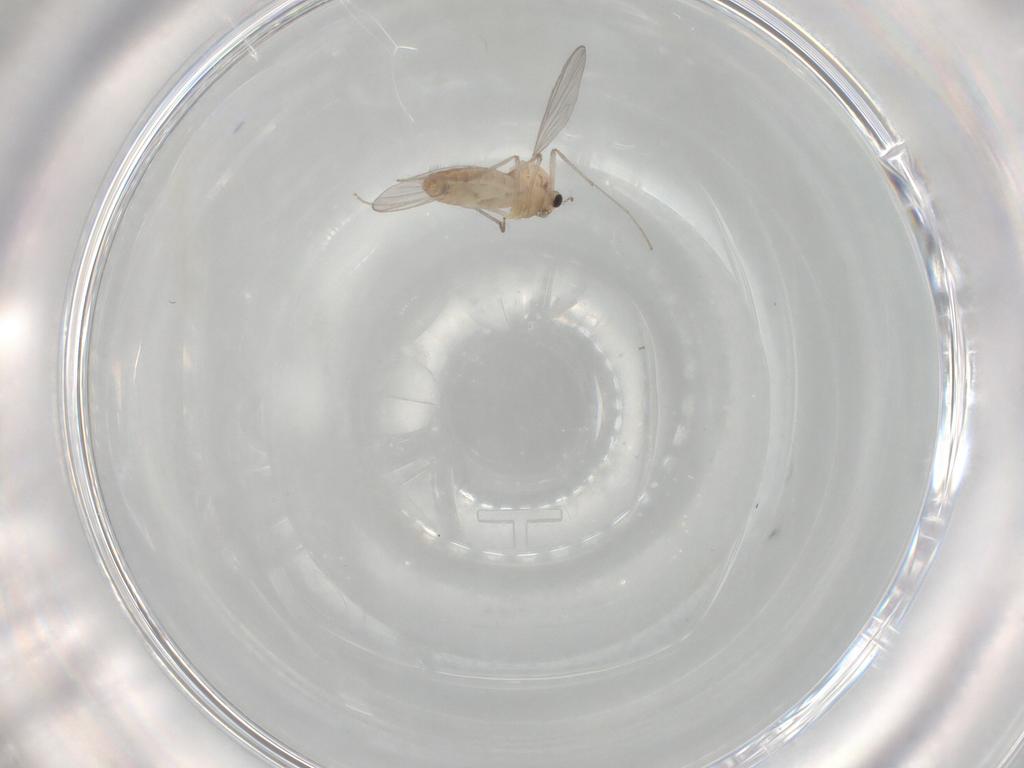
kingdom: Animalia
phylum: Arthropoda
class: Insecta
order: Diptera
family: Chironomidae
